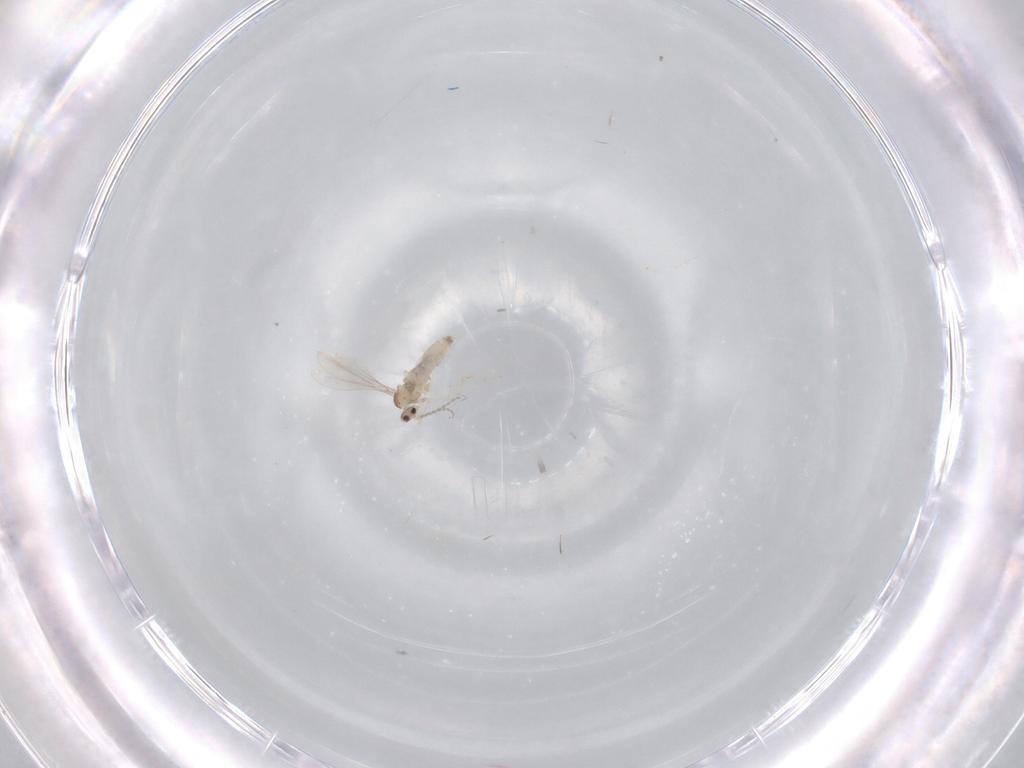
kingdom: Animalia
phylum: Arthropoda
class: Insecta
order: Diptera
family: Cecidomyiidae
